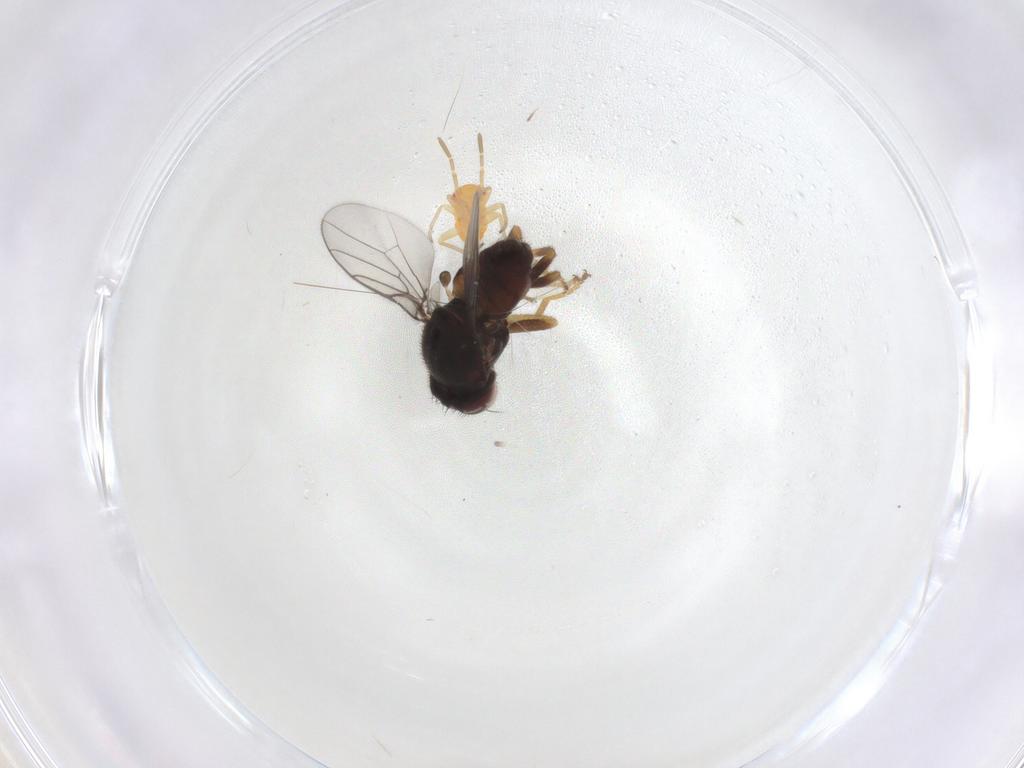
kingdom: Animalia
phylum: Arthropoda
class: Insecta
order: Diptera
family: Chloropidae
